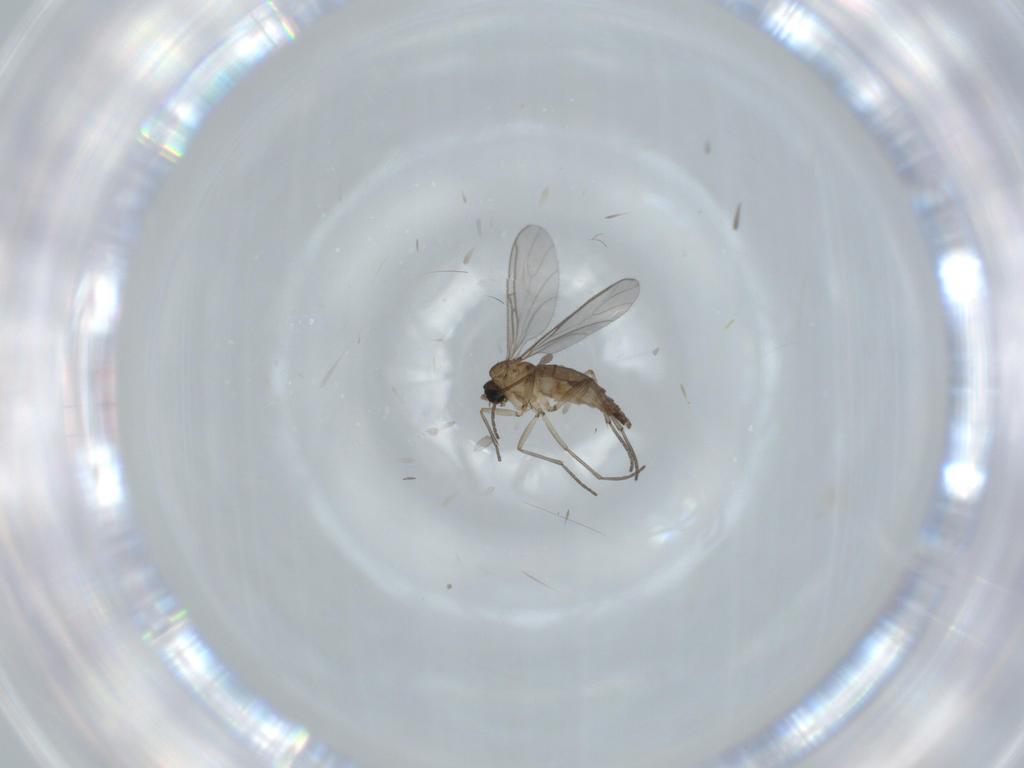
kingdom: Animalia
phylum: Arthropoda
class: Insecta
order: Diptera
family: Sciaridae
